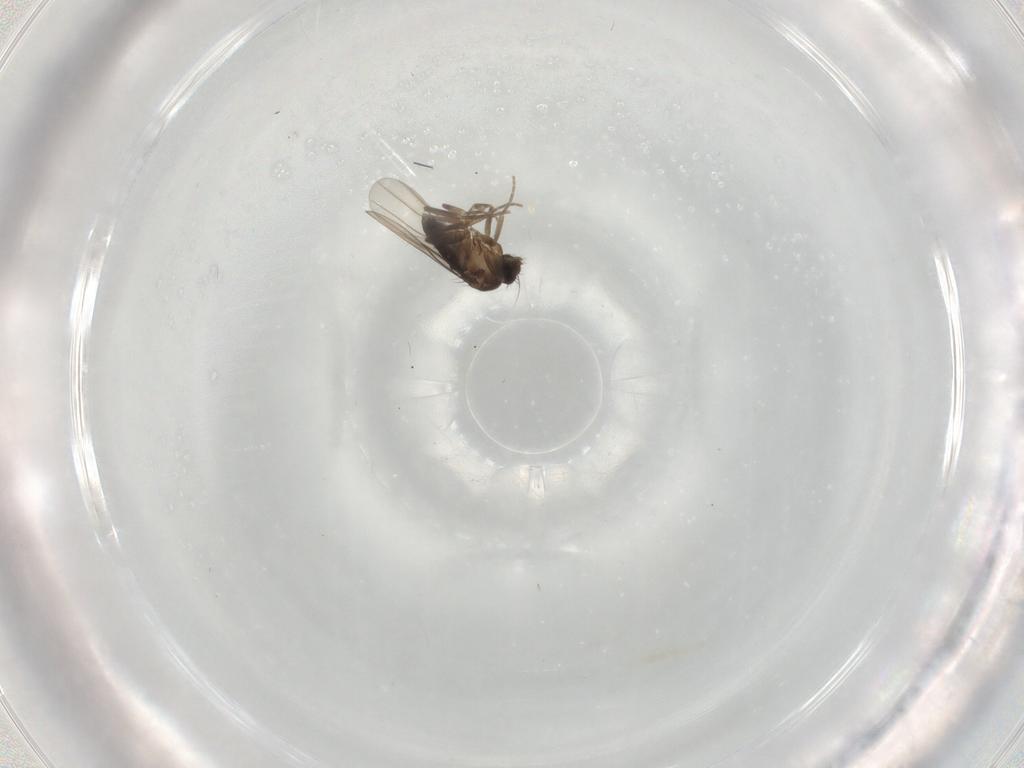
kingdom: Animalia
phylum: Arthropoda
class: Insecta
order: Diptera
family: Phoridae
